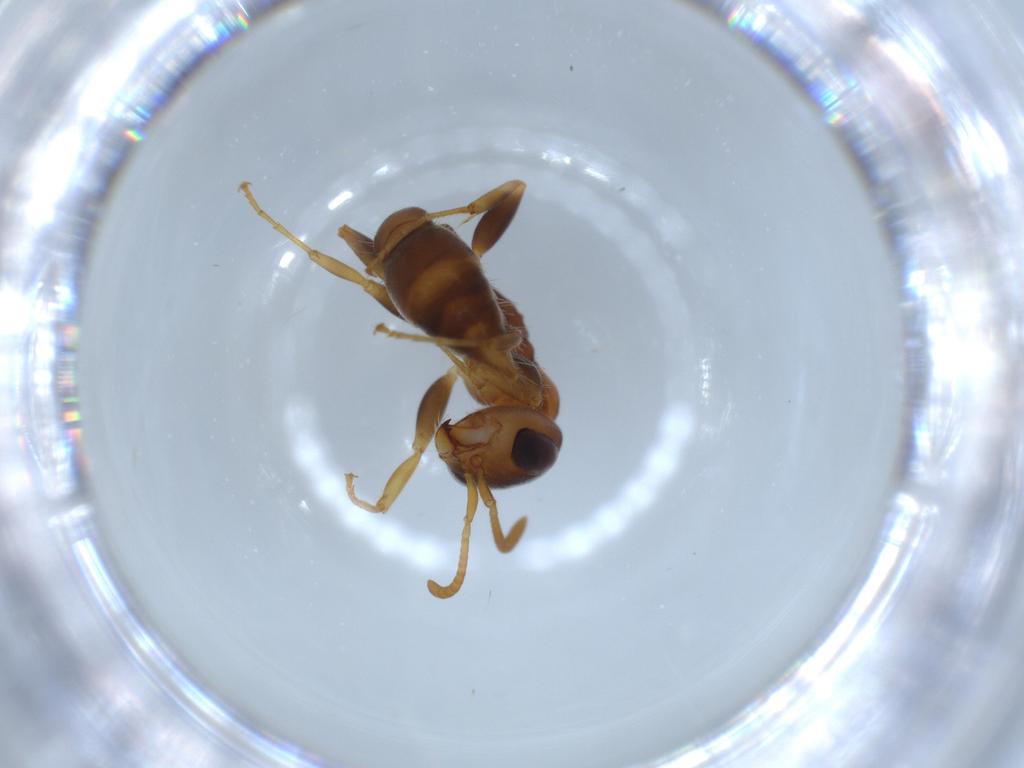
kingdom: Animalia
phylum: Arthropoda
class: Insecta
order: Hymenoptera
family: Formicidae
